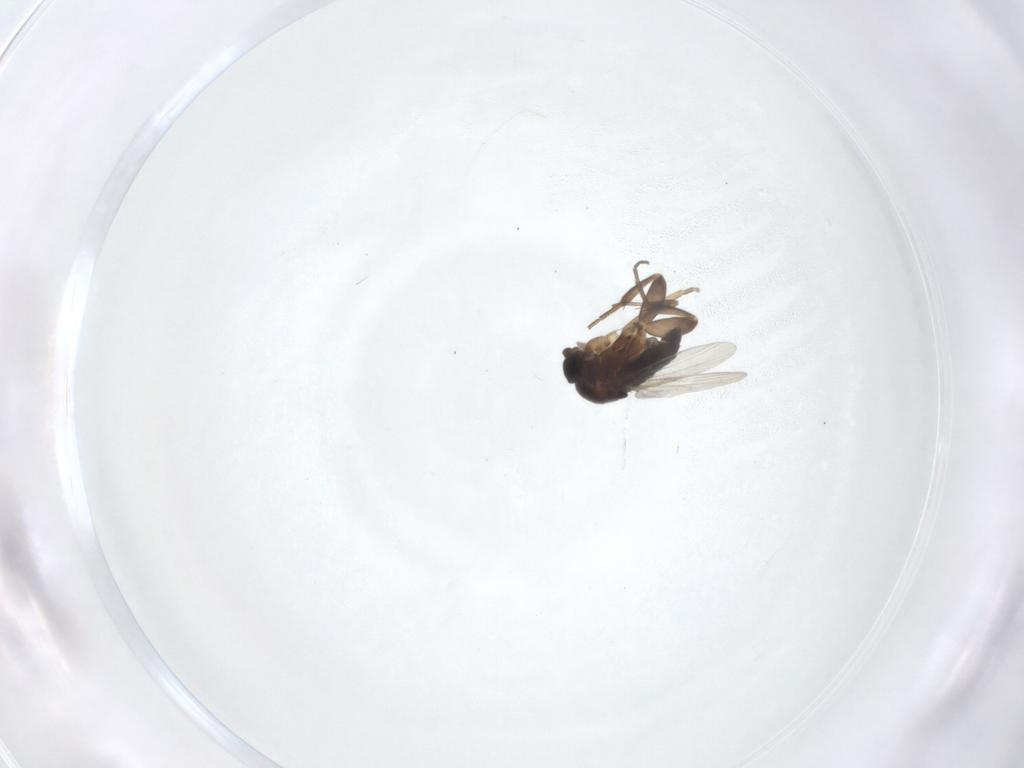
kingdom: Animalia
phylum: Arthropoda
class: Insecta
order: Diptera
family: Phoridae
